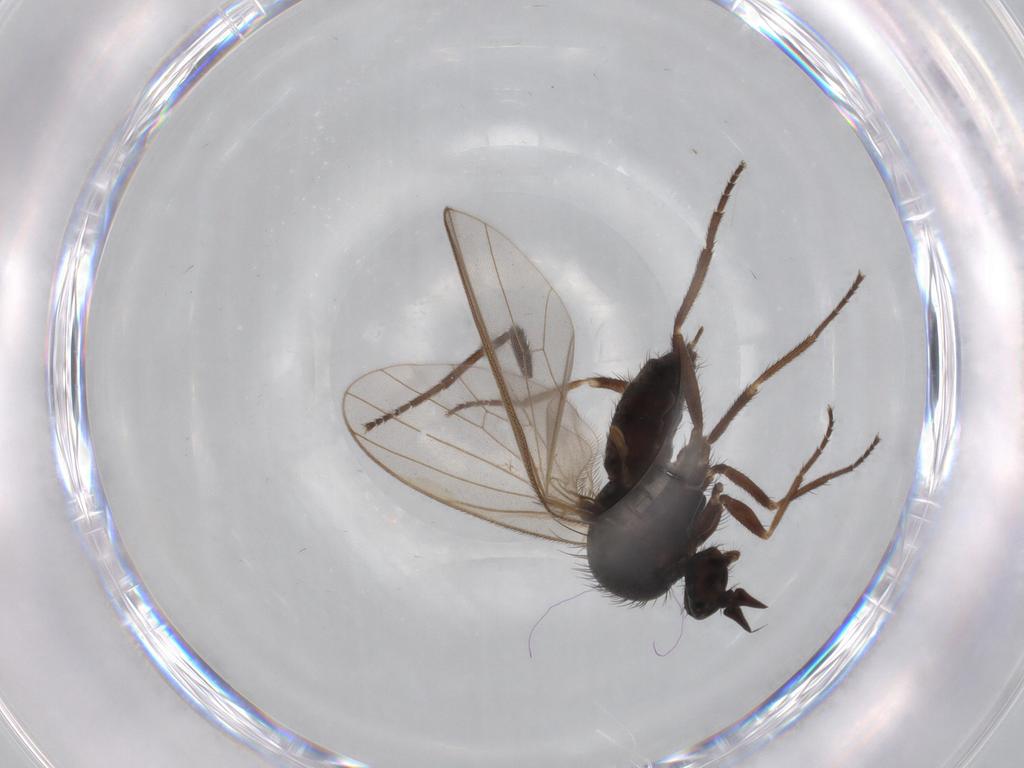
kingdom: Animalia
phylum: Arthropoda
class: Insecta
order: Diptera
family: Dolichopodidae
